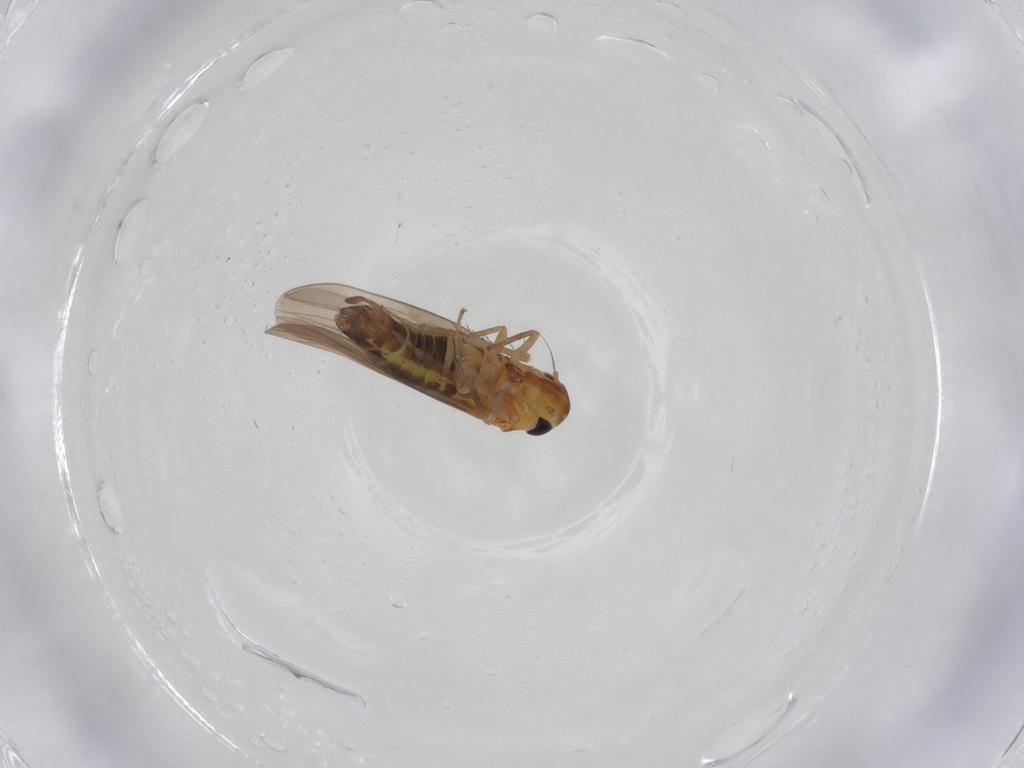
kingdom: Animalia
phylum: Arthropoda
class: Insecta
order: Hemiptera
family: Cicadellidae
